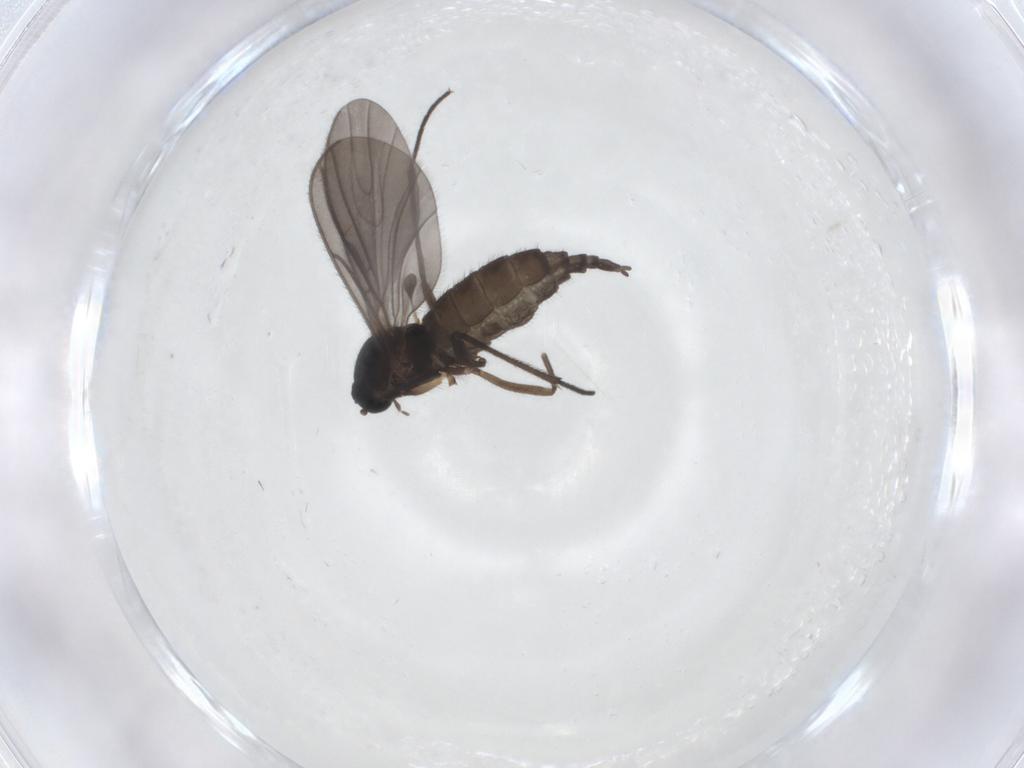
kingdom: Animalia
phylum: Arthropoda
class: Insecta
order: Diptera
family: Sciaridae
